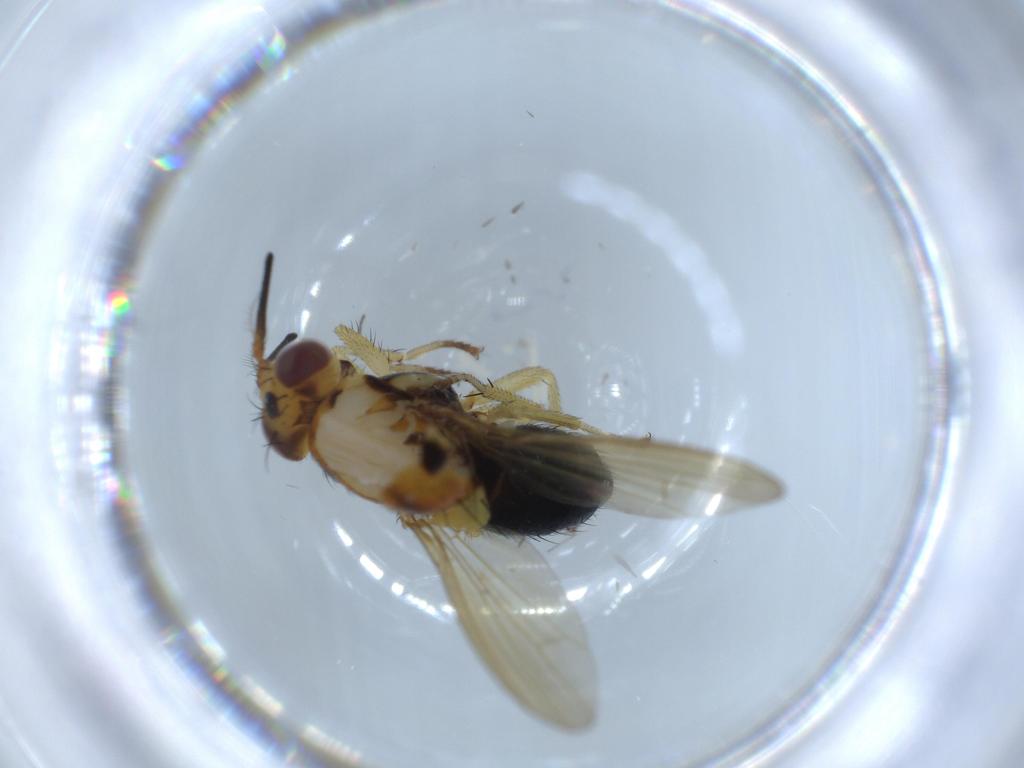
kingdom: Animalia
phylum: Arthropoda
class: Insecta
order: Diptera
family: Lauxaniidae
